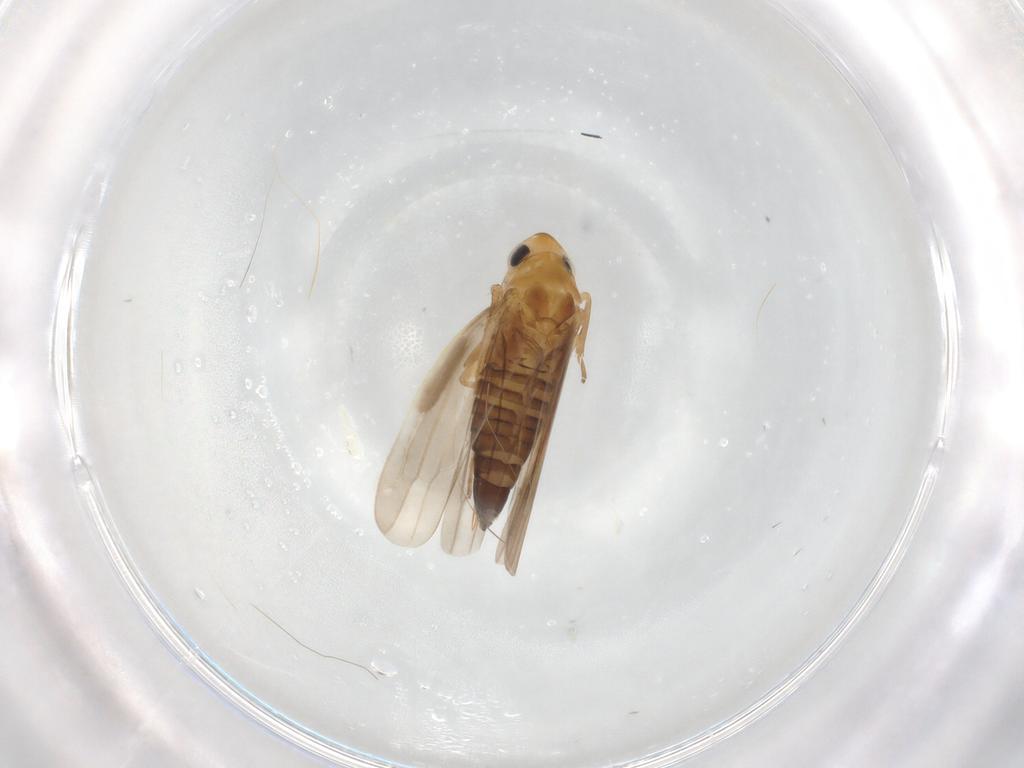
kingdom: Animalia
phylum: Arthropoda
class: Insecta
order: Hemiptera
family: Cicadellidae
